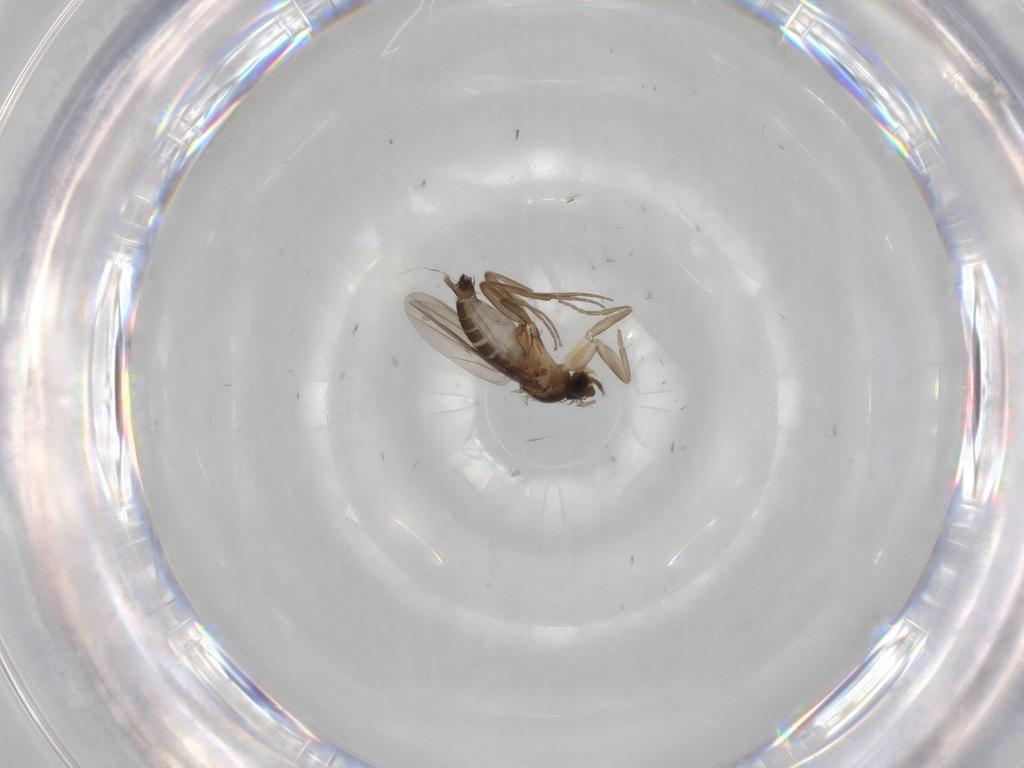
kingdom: Animalia
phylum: Arthropoda
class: Insecta
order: Diptera
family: Phoridae
